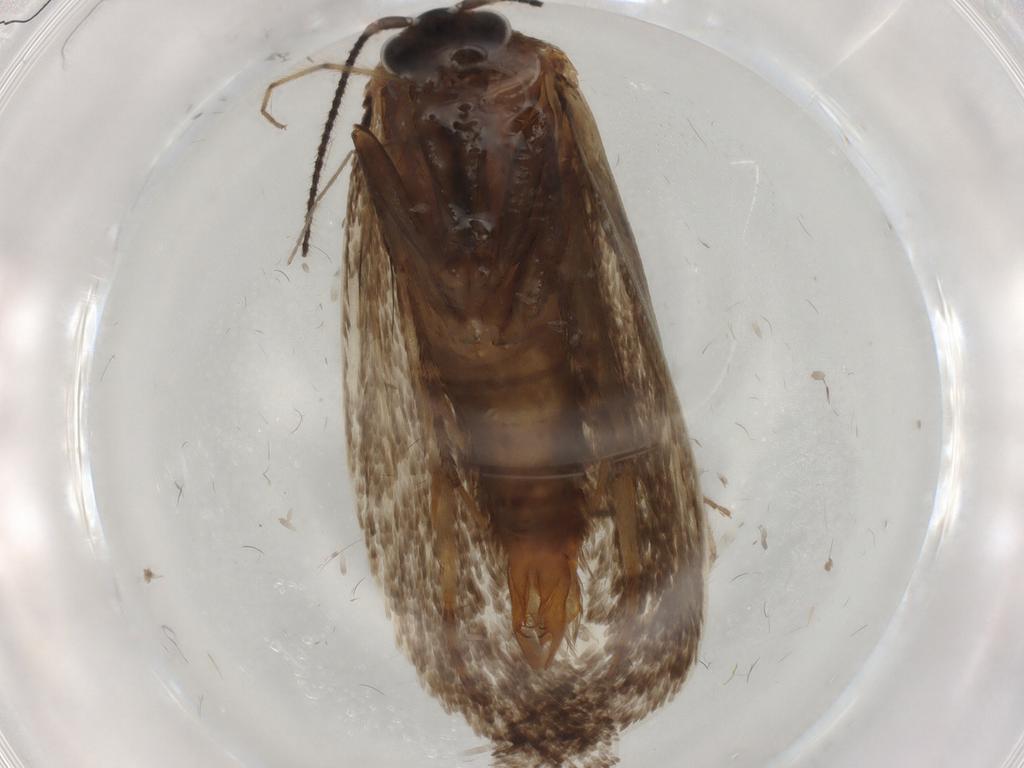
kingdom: Animalia
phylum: Arthropoda
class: Insecta
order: Lepidoptera
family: Eriocottidae
